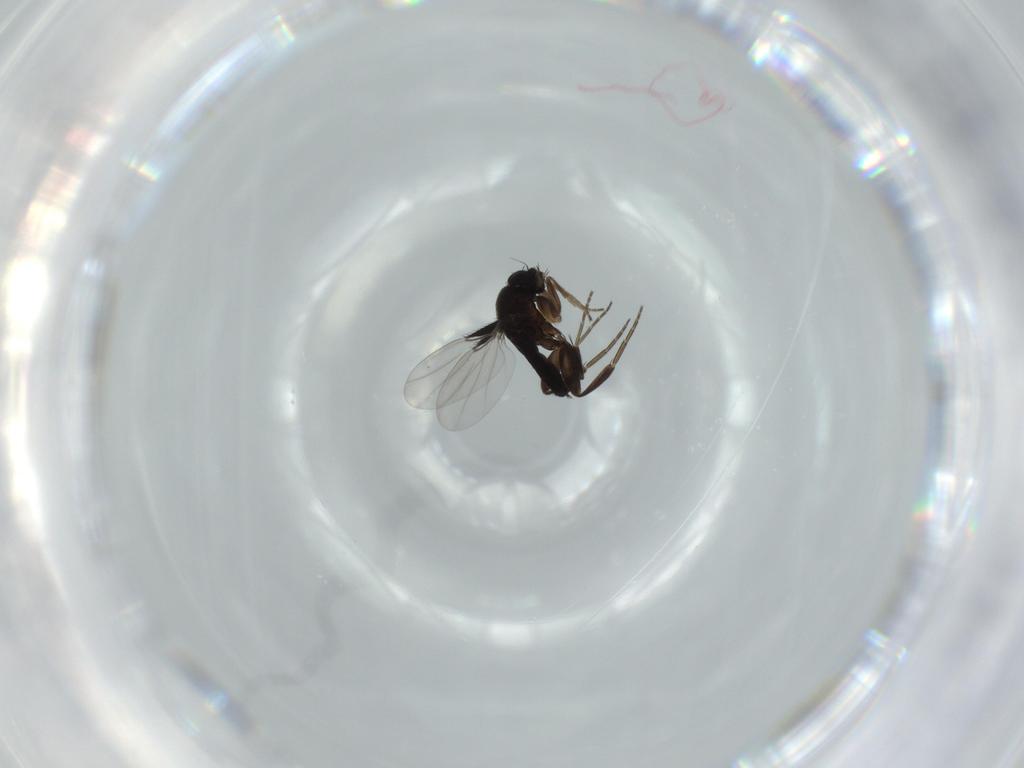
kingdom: Animalia
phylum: Arthropoda
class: Insecta
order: Diptera
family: Phoridae
